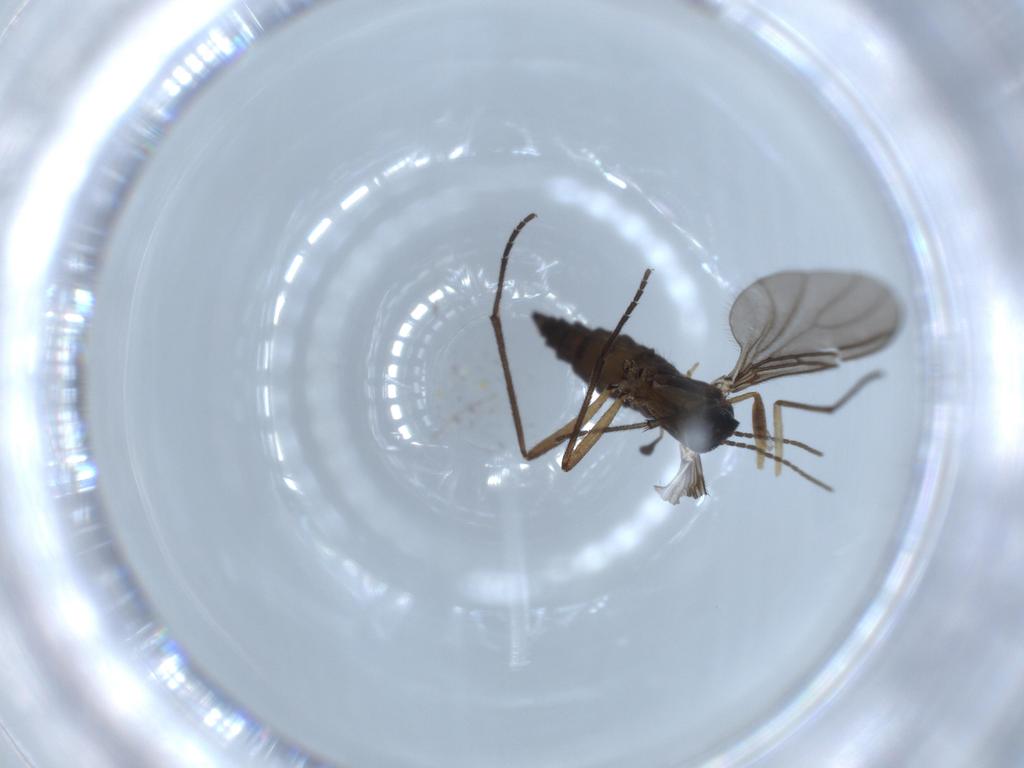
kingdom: Animalia
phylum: Arthropoda
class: Insecta
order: Diptera
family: Sciaridae
